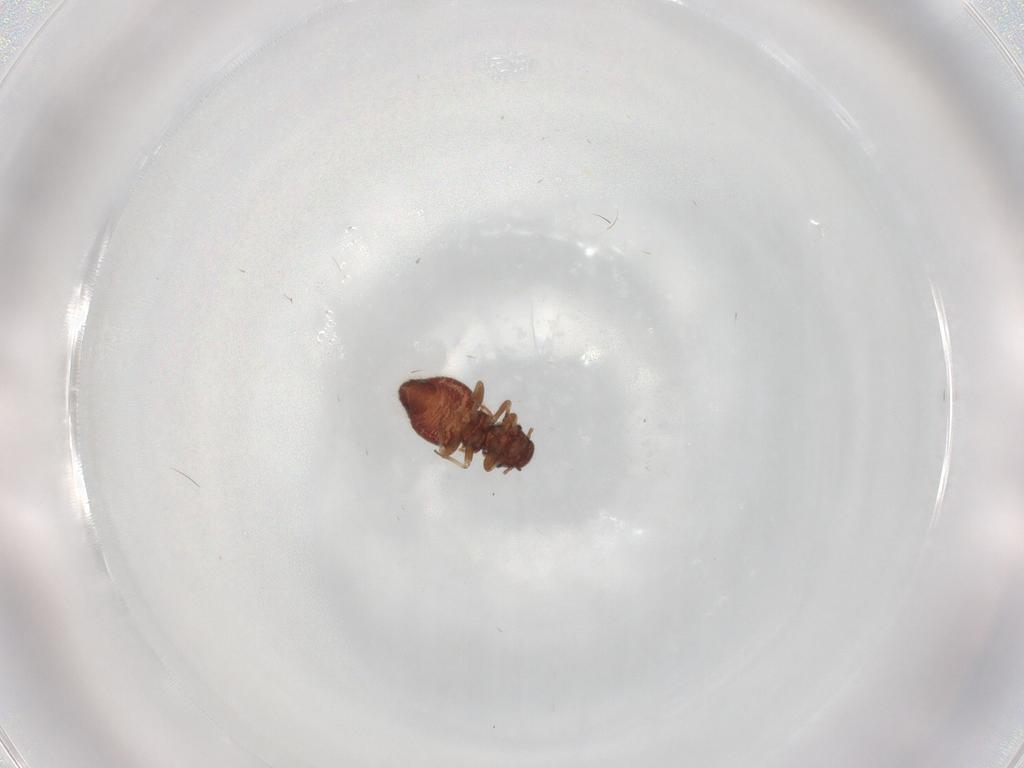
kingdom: Animalia
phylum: Arthropoda
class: Insecta
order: Psocodea
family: Archipsocidae
